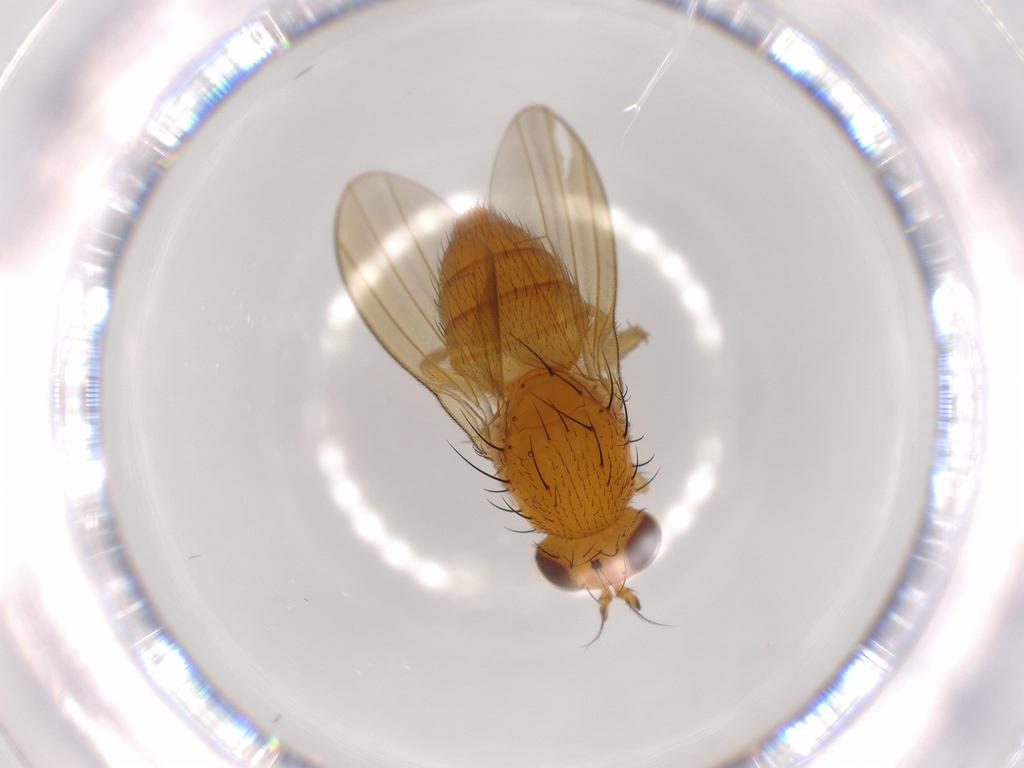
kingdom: Animalia
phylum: Arthropoda
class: Insecta
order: Diptera
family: Lauxaniidae
